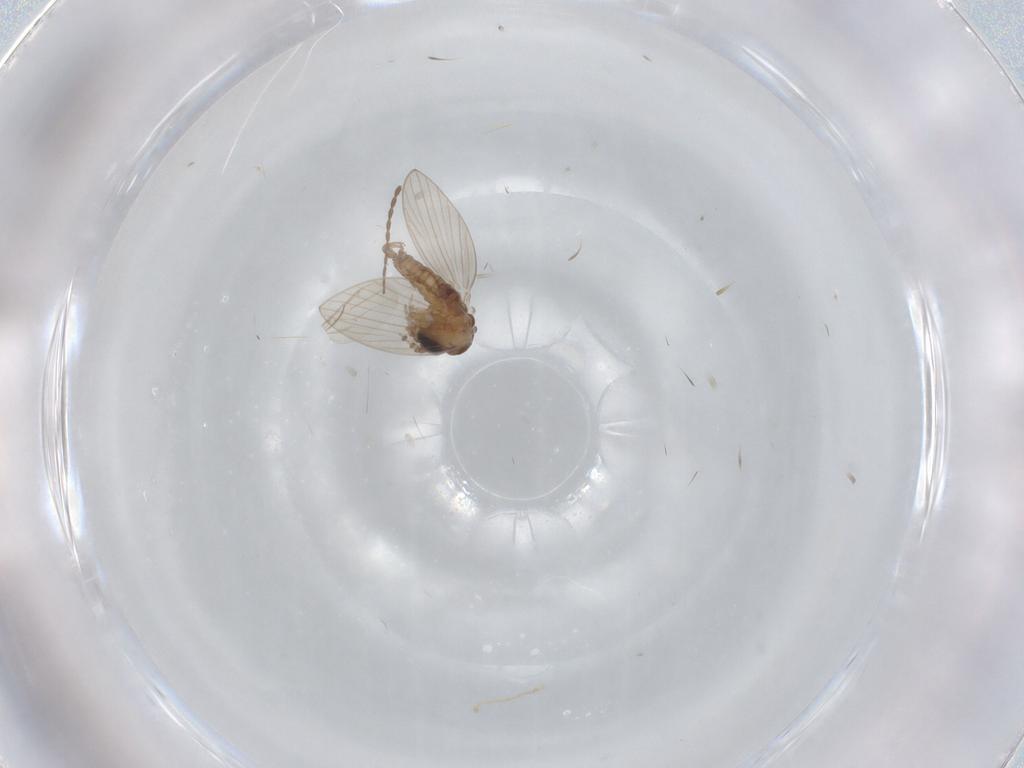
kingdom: Animalia
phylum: Arthropoda
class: Insecta
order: Diptera
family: Limoniidae
